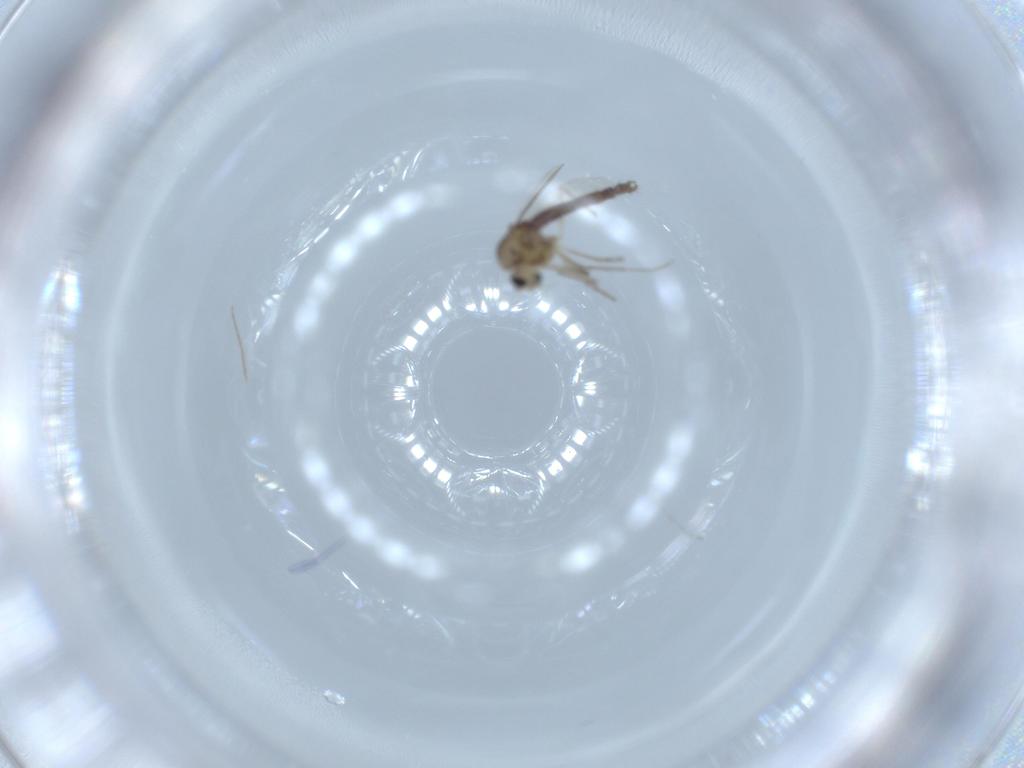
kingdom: Animalia
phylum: Arthropoda
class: Insecta
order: Diptera
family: Chironomidae
